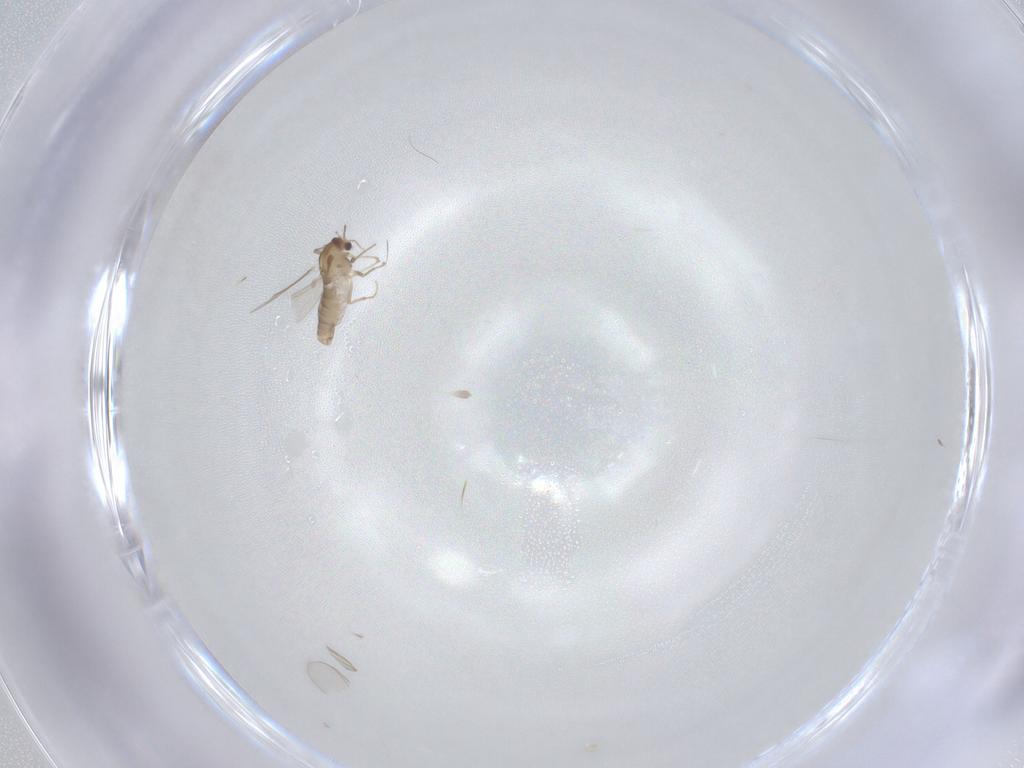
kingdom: Animalia
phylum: Arthropoda
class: Insecta
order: Diptera
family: Chironomidae
